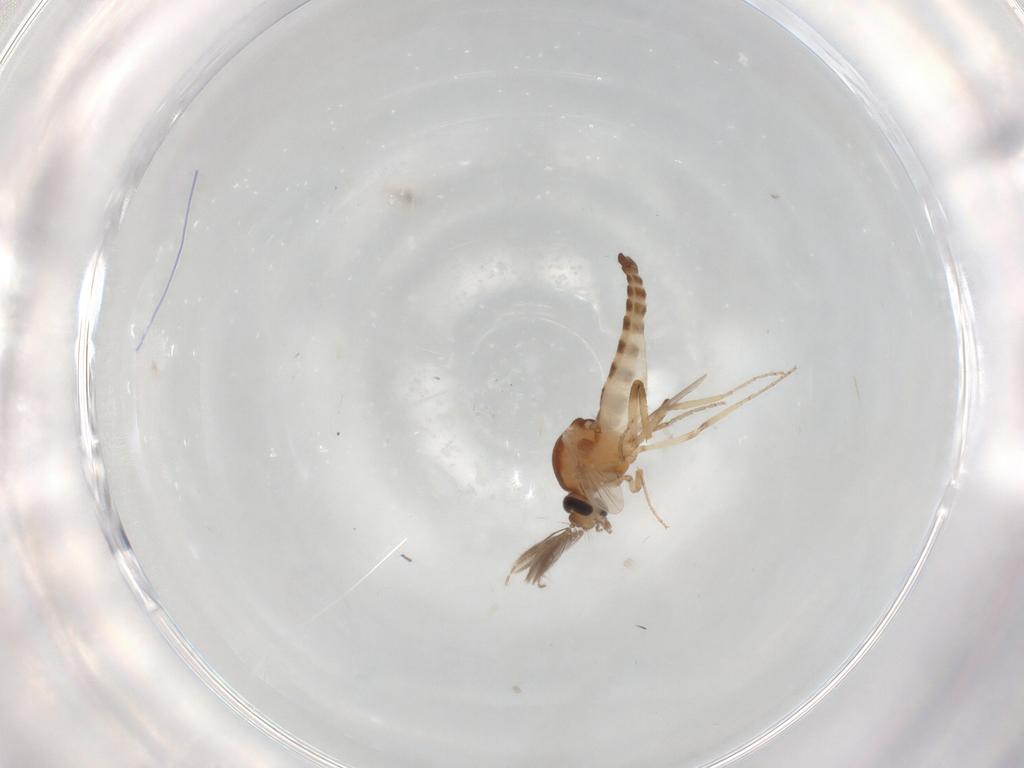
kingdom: Animalia
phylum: Arthropoda
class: Insecta
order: Diptera
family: Ceratopogonidae
